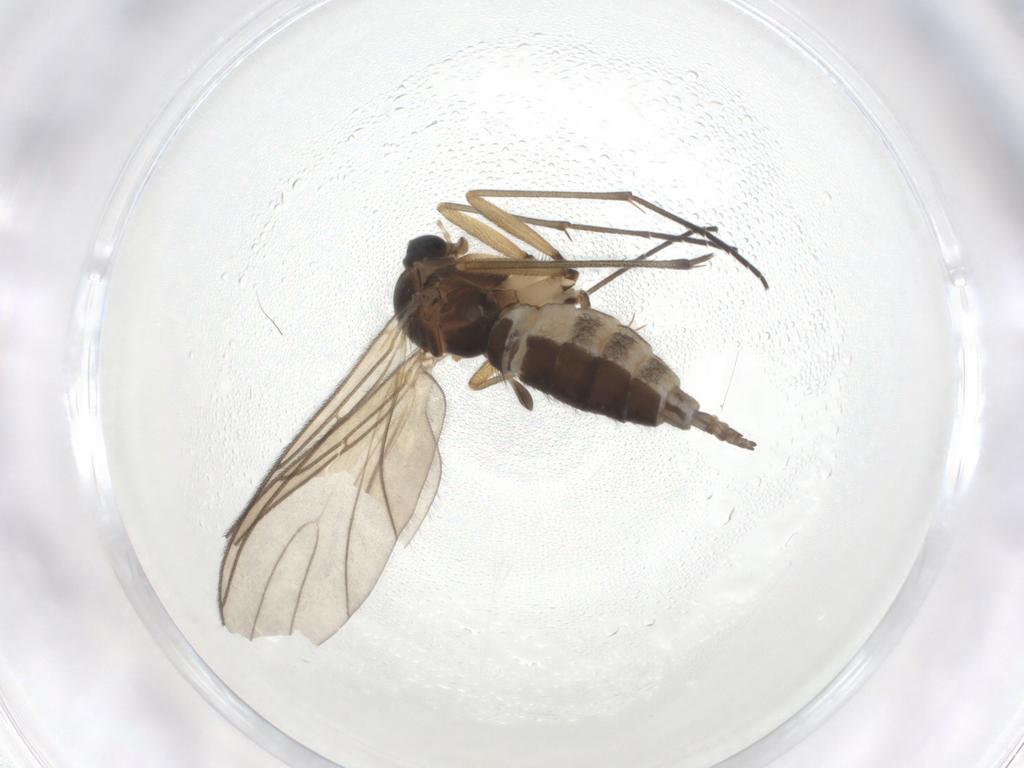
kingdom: Animalia
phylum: Arthropoda
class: Insecta
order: Diptera
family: Sciaridae
